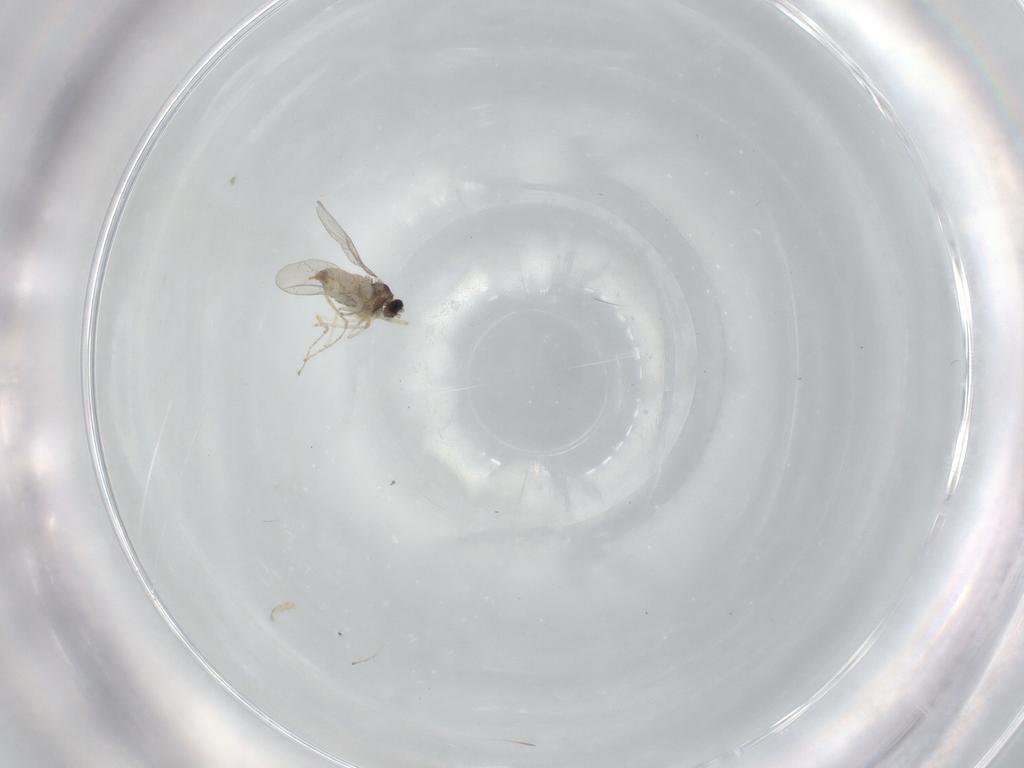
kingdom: Animalia
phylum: Arthropoda
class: Insecta
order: Diptera
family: Cecidomyiidae
